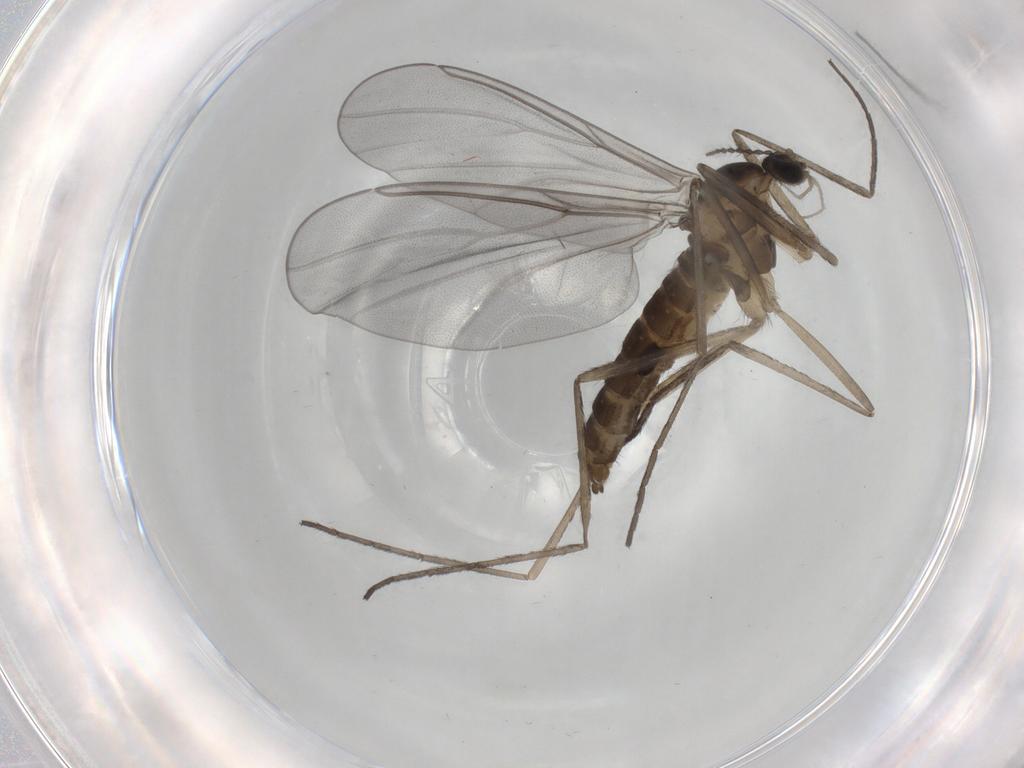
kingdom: Animalia
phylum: Arthropoda
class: Insecta
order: Diptera
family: Cecidomyiidae
